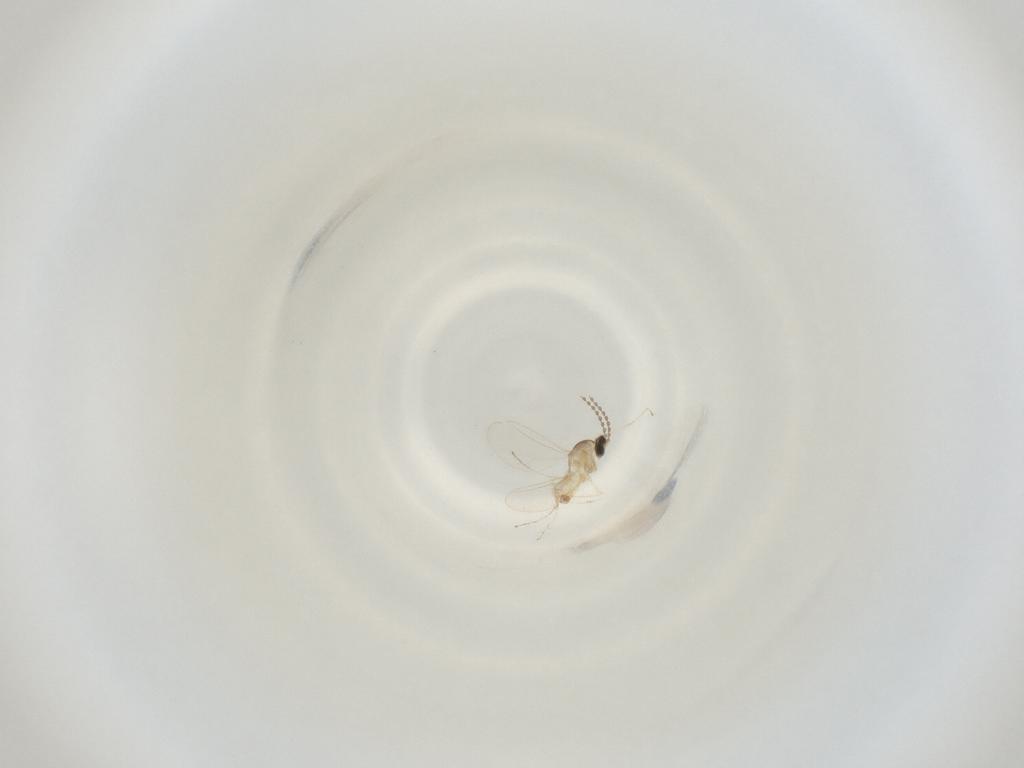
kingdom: Animalia
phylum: Arthropoda
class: Insecta
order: Diptera
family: Cecidomyiidae
